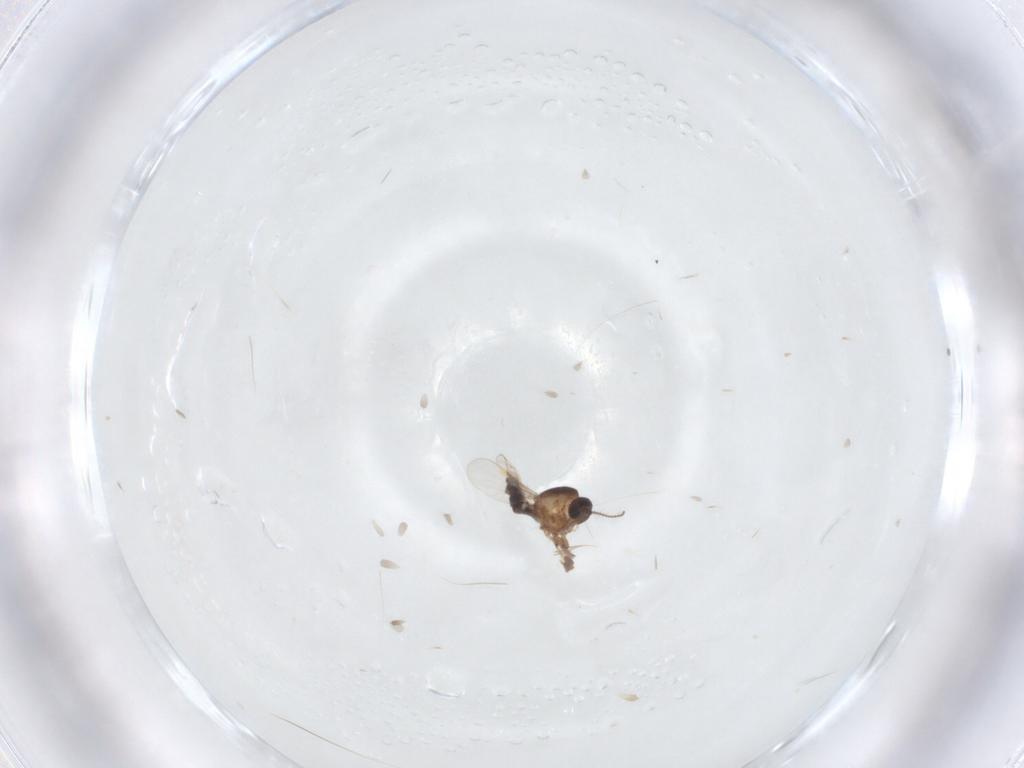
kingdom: Animalia
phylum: Arthropoda
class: Insecta
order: Diptera
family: Ceratopogonidae
